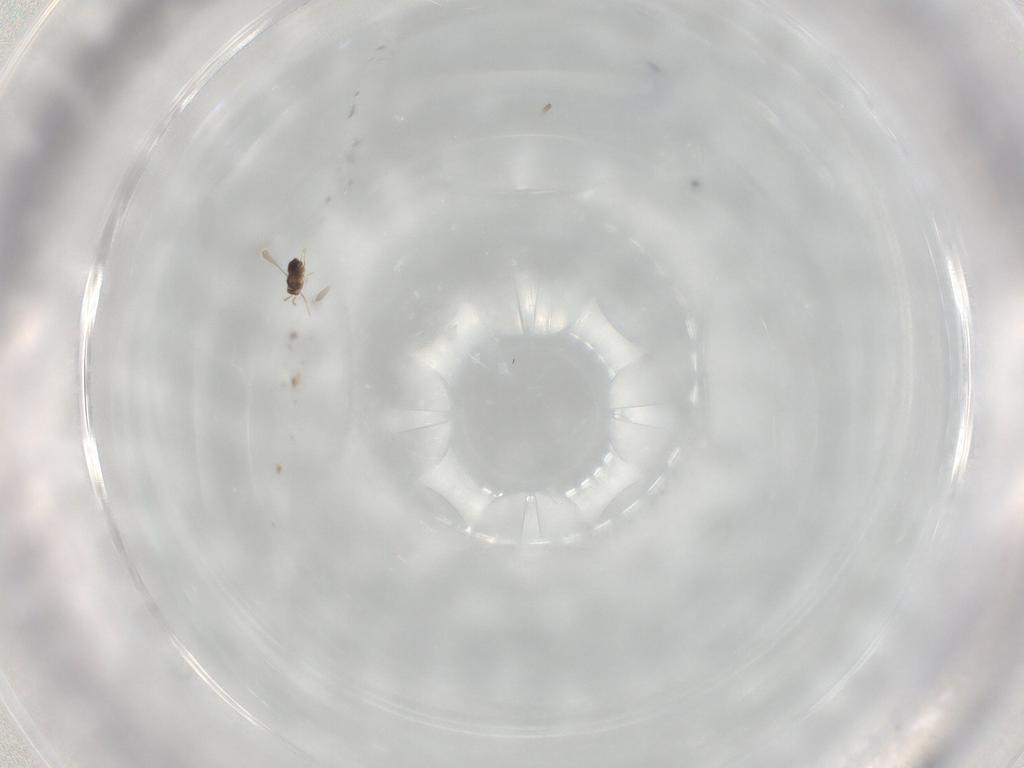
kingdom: Animalia
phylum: Arthropoda
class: Insecta
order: Hymenoptera
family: Mymaridae
